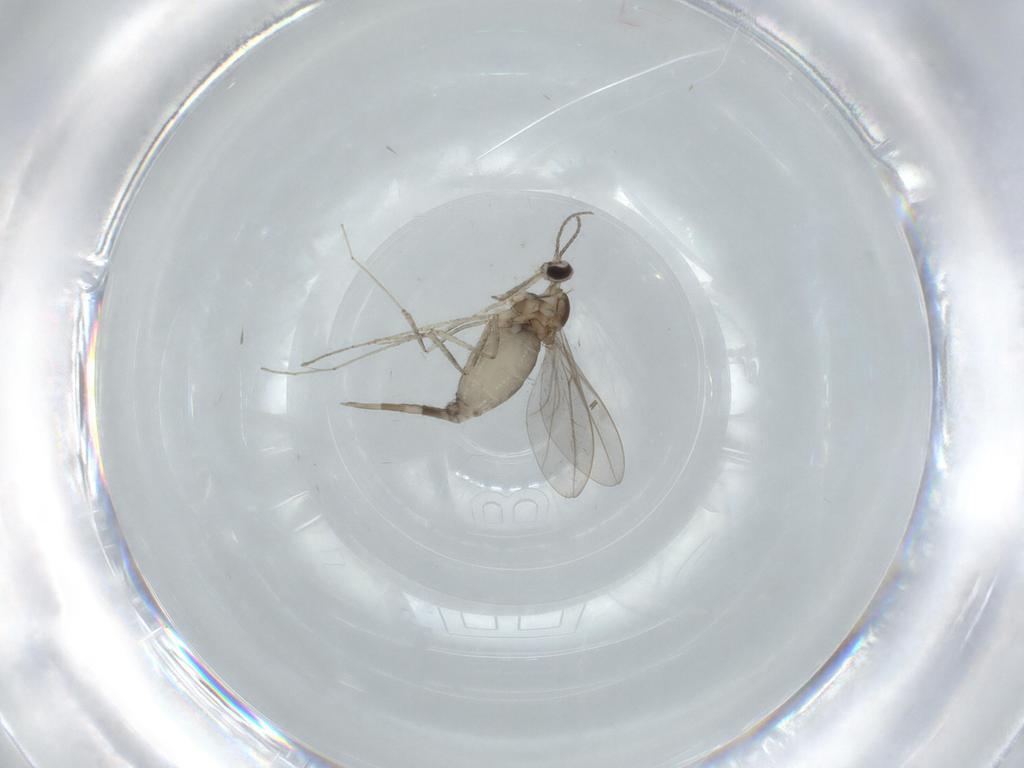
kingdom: Animalia
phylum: Arthropoda
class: Insecta
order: Diptera
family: Cecidomyiidae
